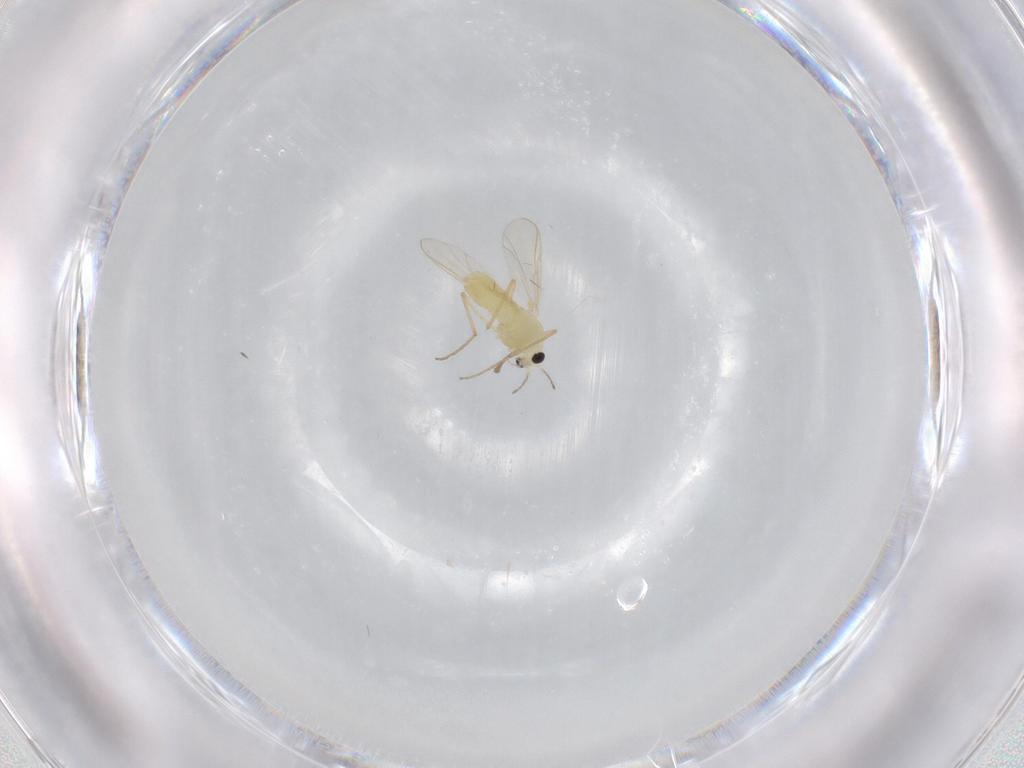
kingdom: Animalia
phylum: Arthropoda
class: Insecta
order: Diptera
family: Chironomidae
